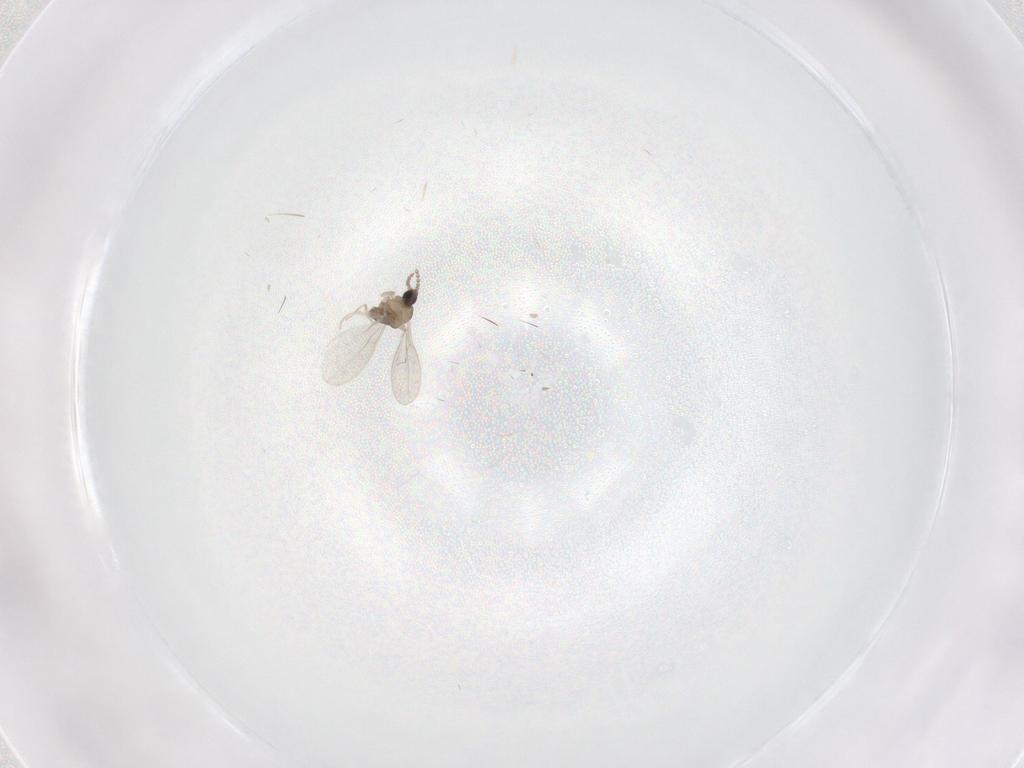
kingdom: Animalia
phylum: Arthropoda
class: Insecta
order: Diptera
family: Cecidomyiidae
